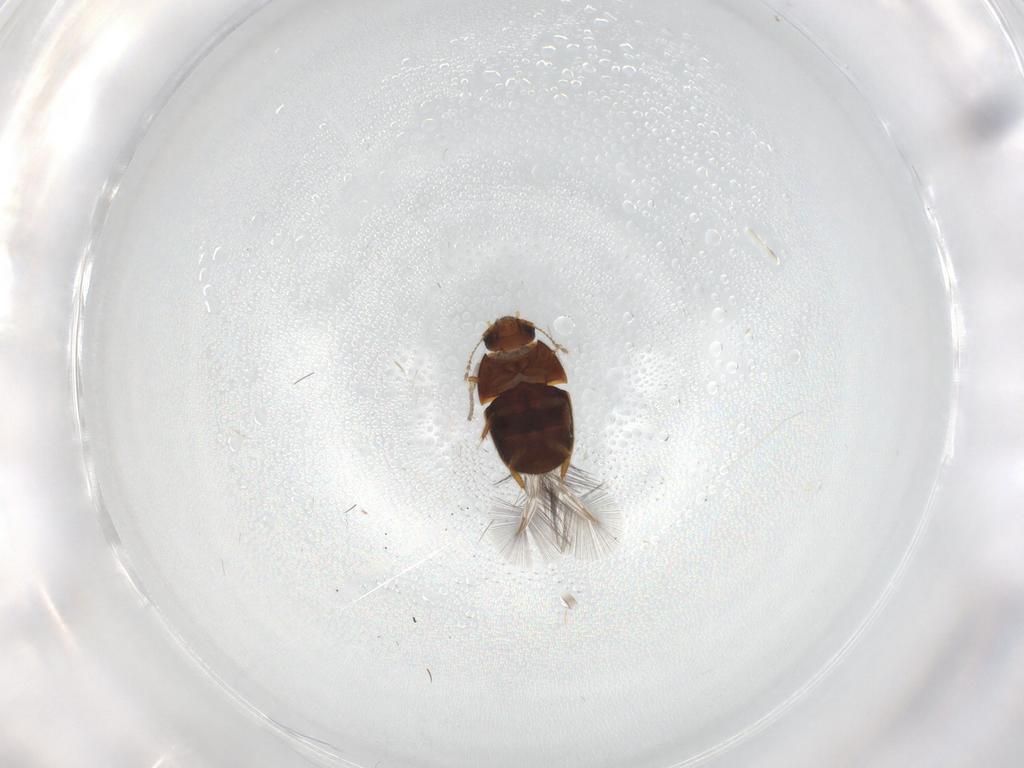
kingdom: Animalia
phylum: Arthropoda
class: Insecta
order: Coleoptera
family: Ptiliidae
